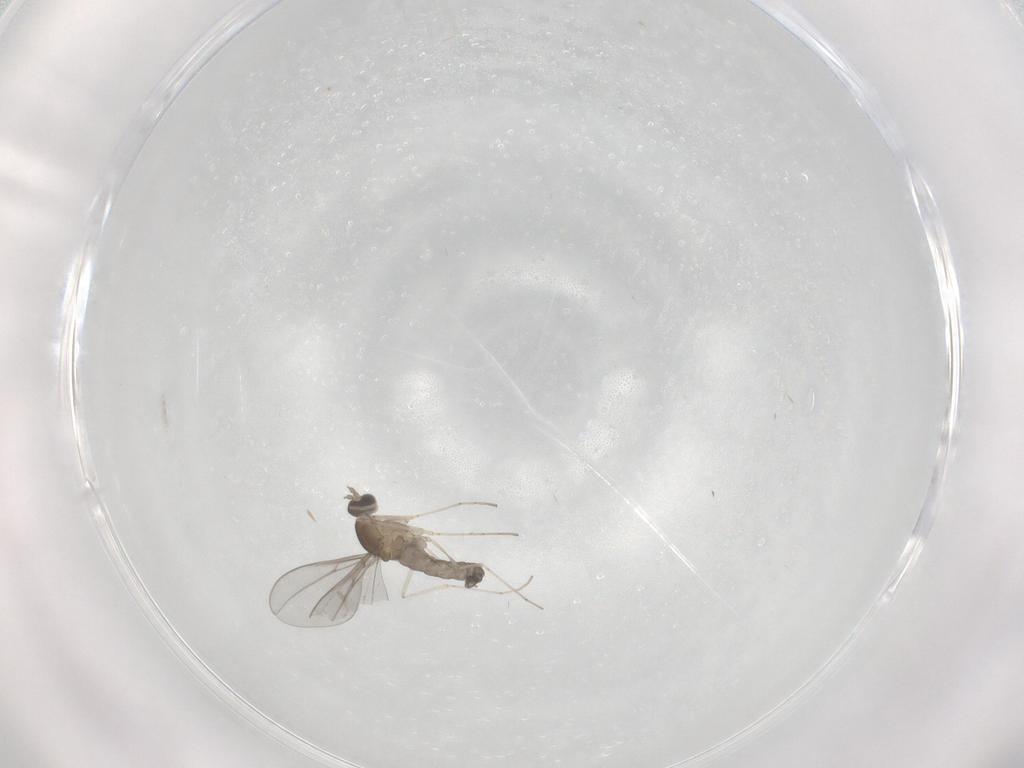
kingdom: Animalia
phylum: Arthropoda
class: Insecta
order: Diptera
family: Cecidomyiidae
